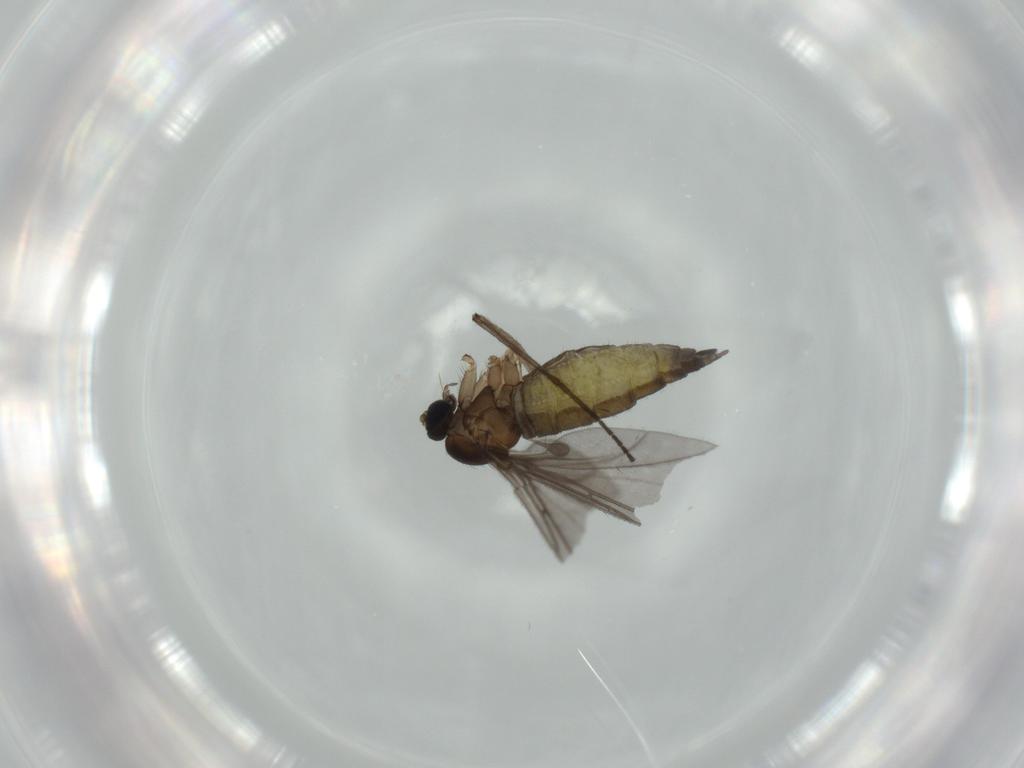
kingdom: Animalia
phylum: Arthropoda
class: Insecta
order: Diptera
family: Sciaridae
